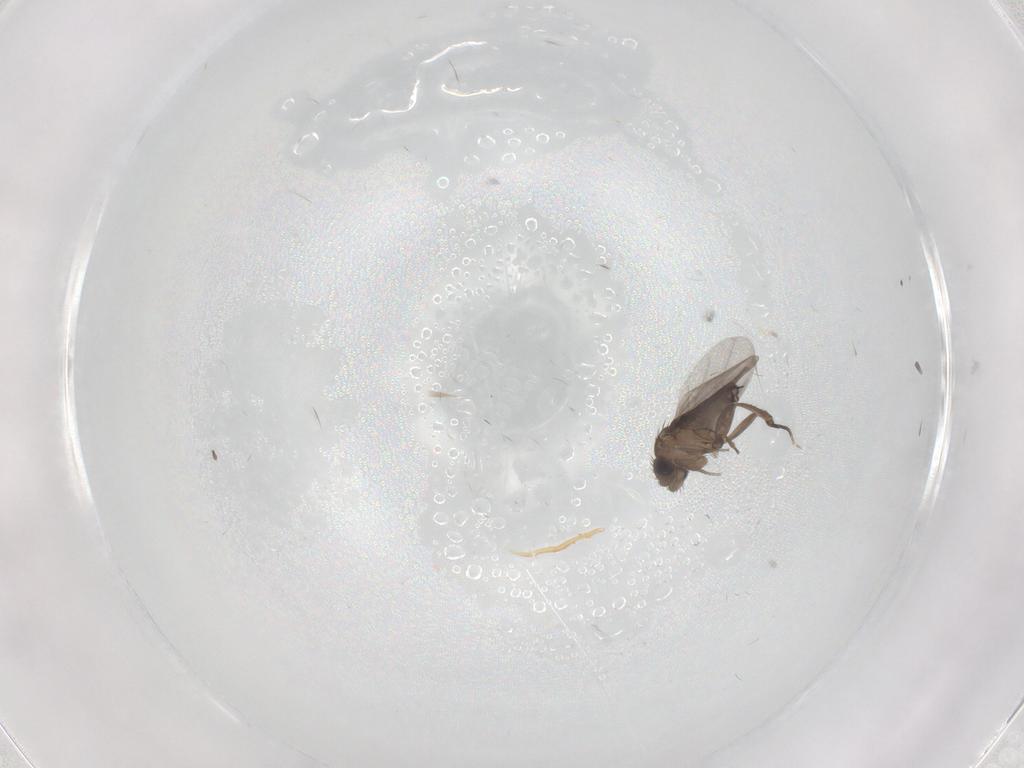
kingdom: Animalia
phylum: Arthropoda
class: Insecta
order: Diptera
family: Phoridae
